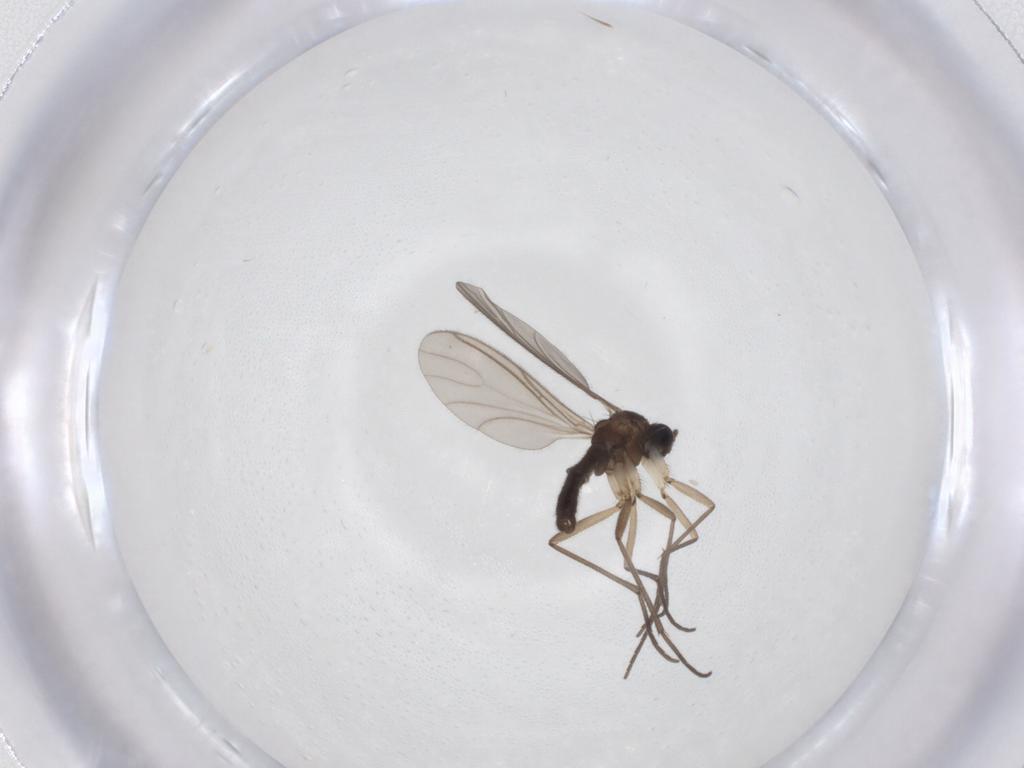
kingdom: Animalia
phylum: Arthropoda
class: Insecta
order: Diptera
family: Sciaridae
